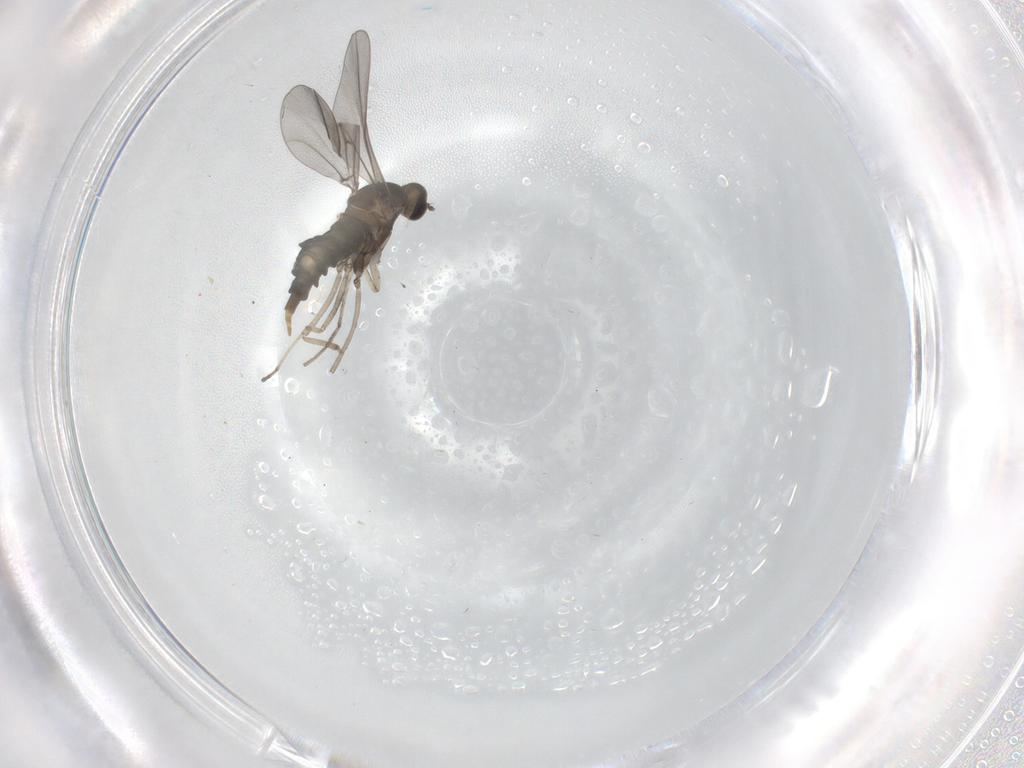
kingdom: Animalia
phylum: Arthropoda
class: Insecta
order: Diptera
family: Cecidomyiidae
